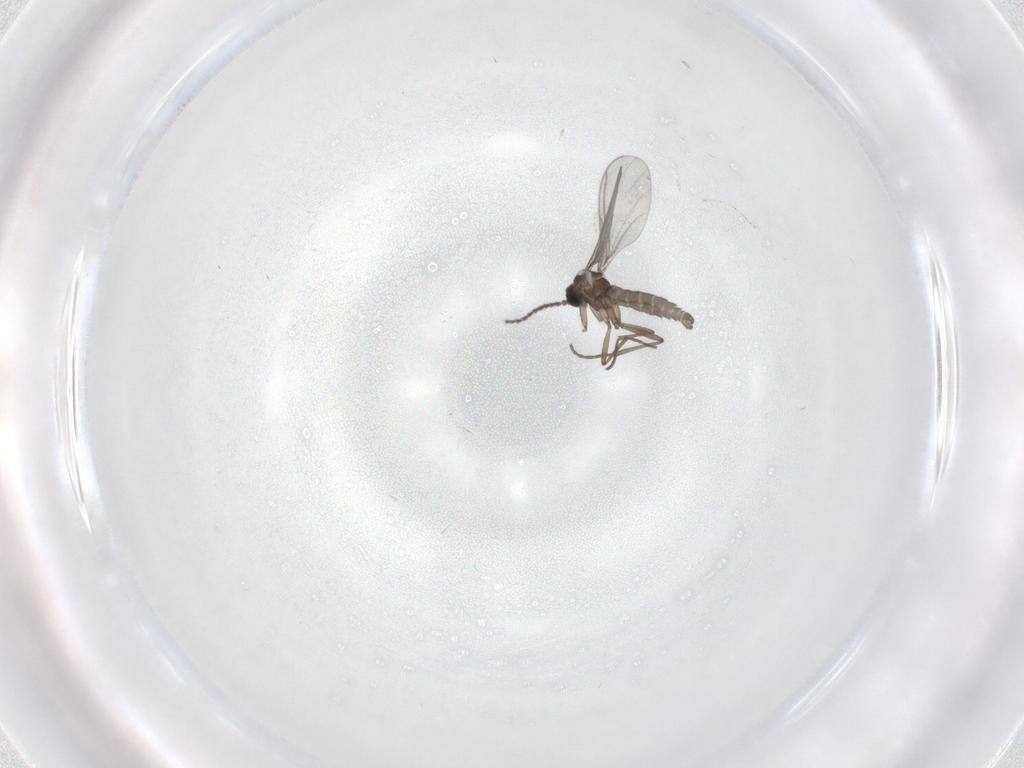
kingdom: Animalia
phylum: Arthropoda
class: Insecta
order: Diptera
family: Sciaridae
